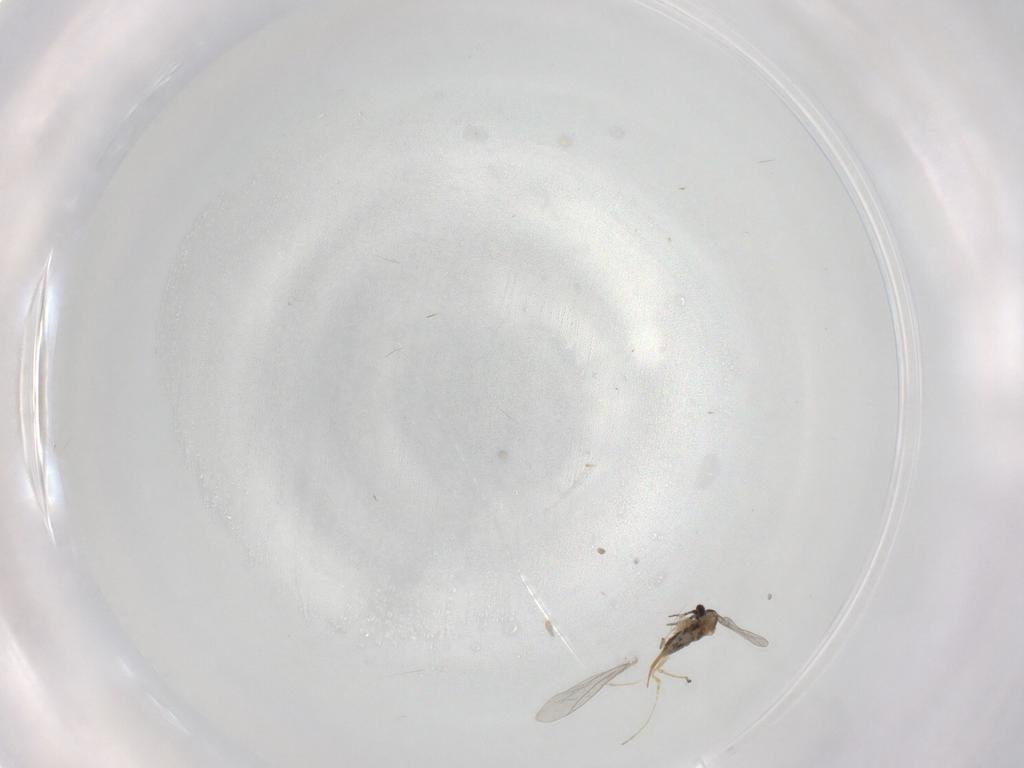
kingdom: Animalia
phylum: Arthropoda
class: Insecta
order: Diptera
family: Cecidomyiidae
